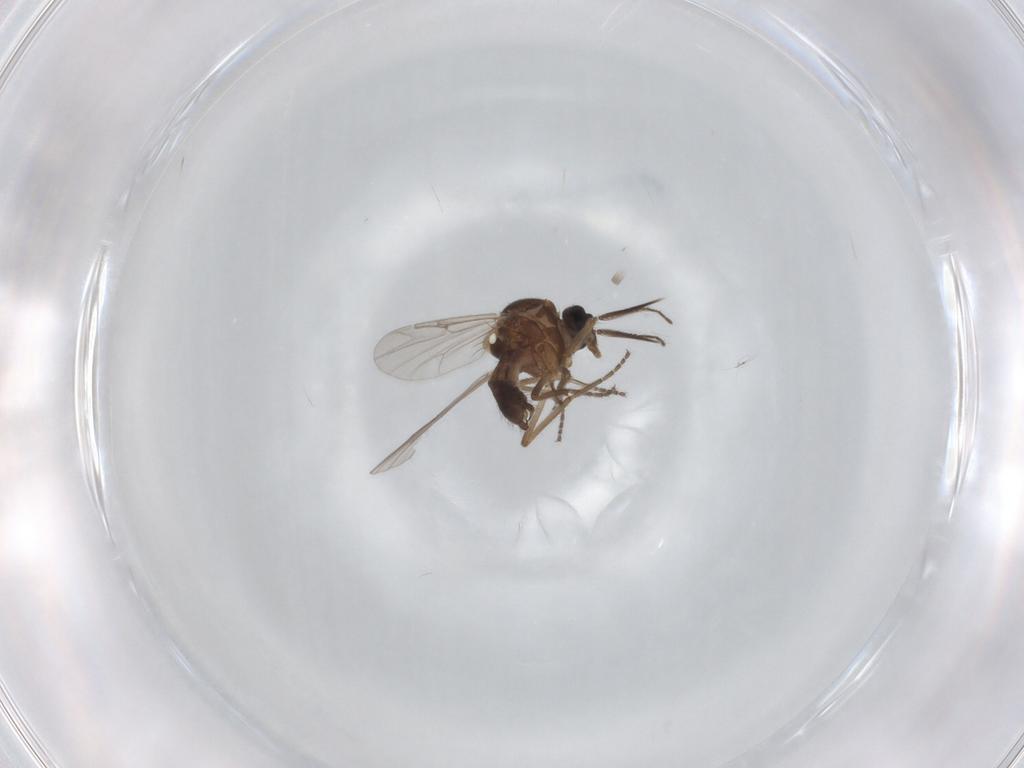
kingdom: Animalia
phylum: Arthropoda
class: Insecta
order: Diptera
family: Ceratopogonidae
